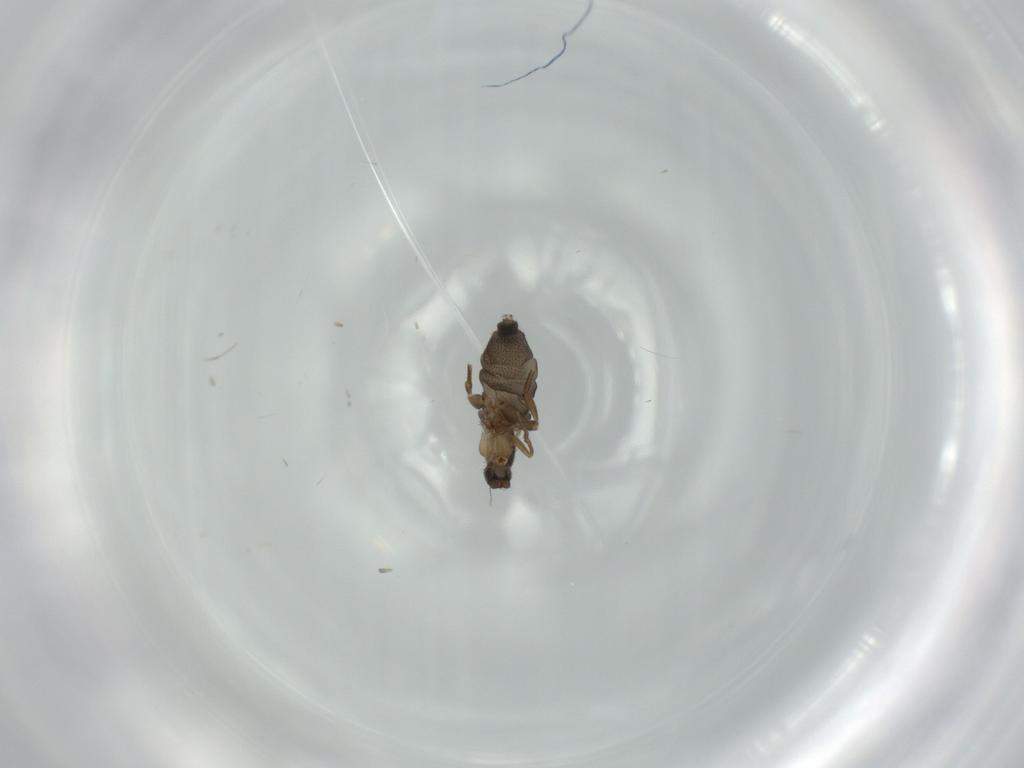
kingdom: Animalia
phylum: Arthropoda
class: Insecta
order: Diptera
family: Phoridae
